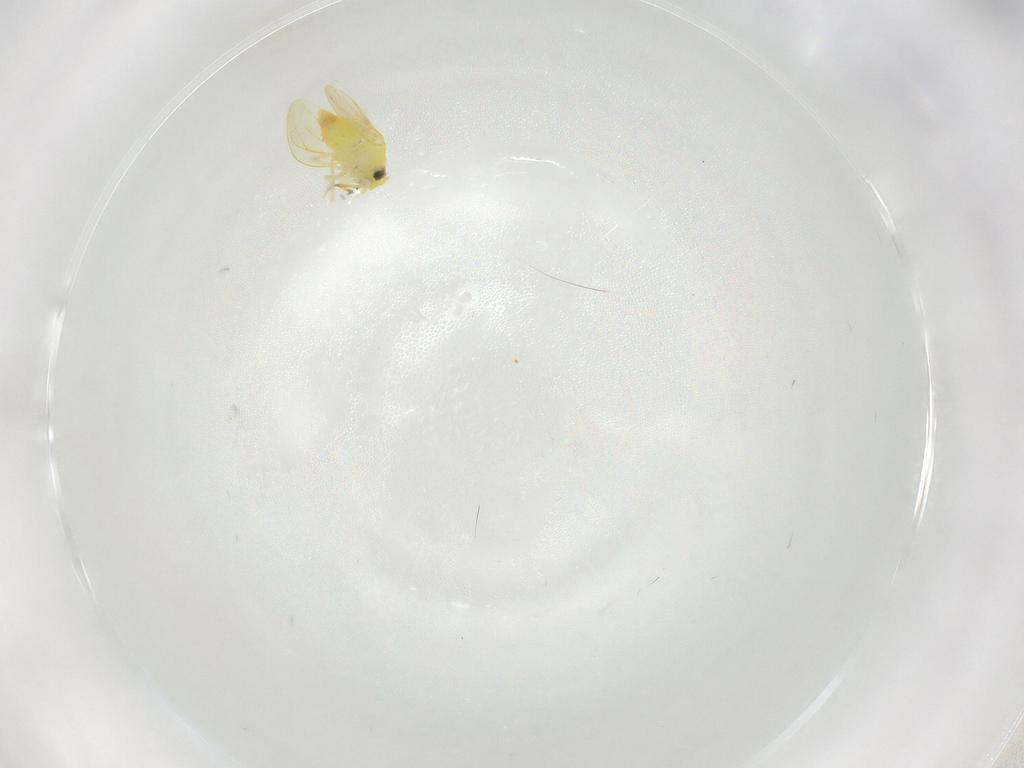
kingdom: Animalia
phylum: Arthropoda
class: Insecta
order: Hemiptera
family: Aleyrodidae
